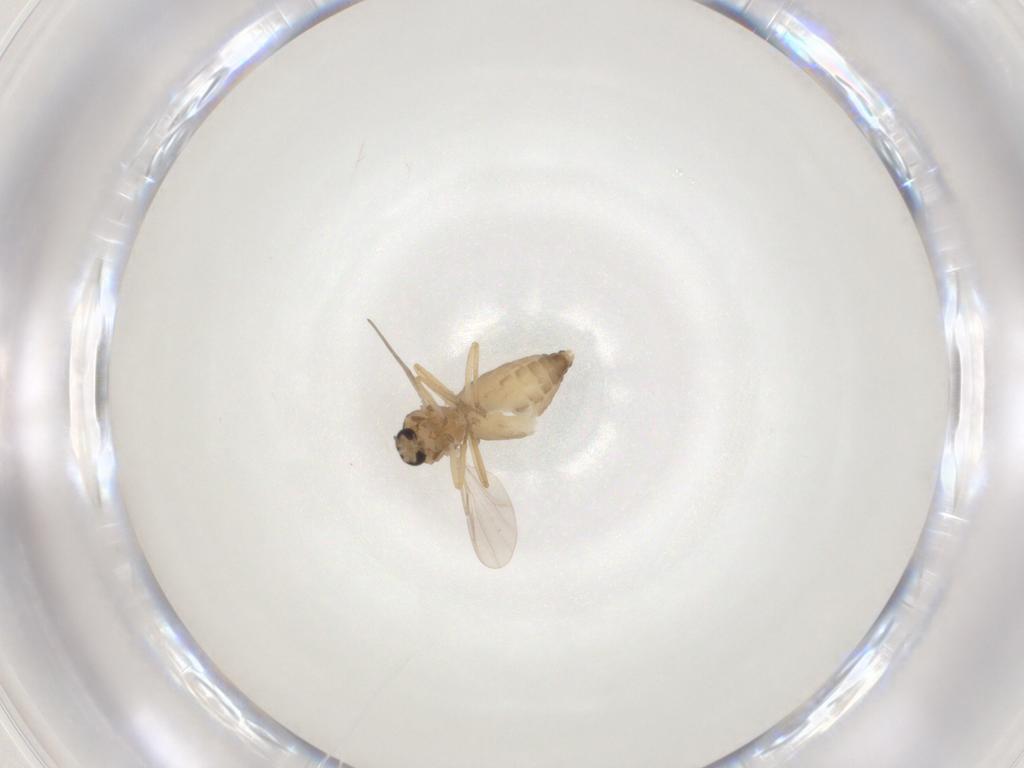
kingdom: Animalia
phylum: Arthropoda
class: Insecta
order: Diptera
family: Ceratopogonidae
